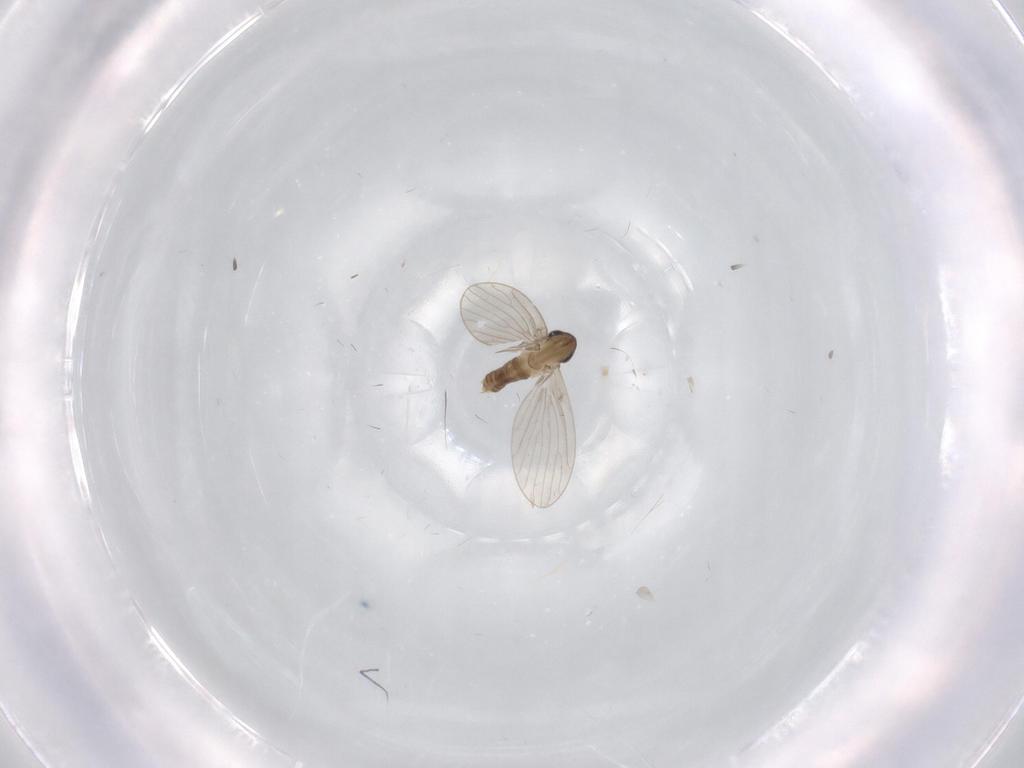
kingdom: Animalia
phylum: Arthropoda
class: Insecta
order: Diptera
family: Psychodidae
